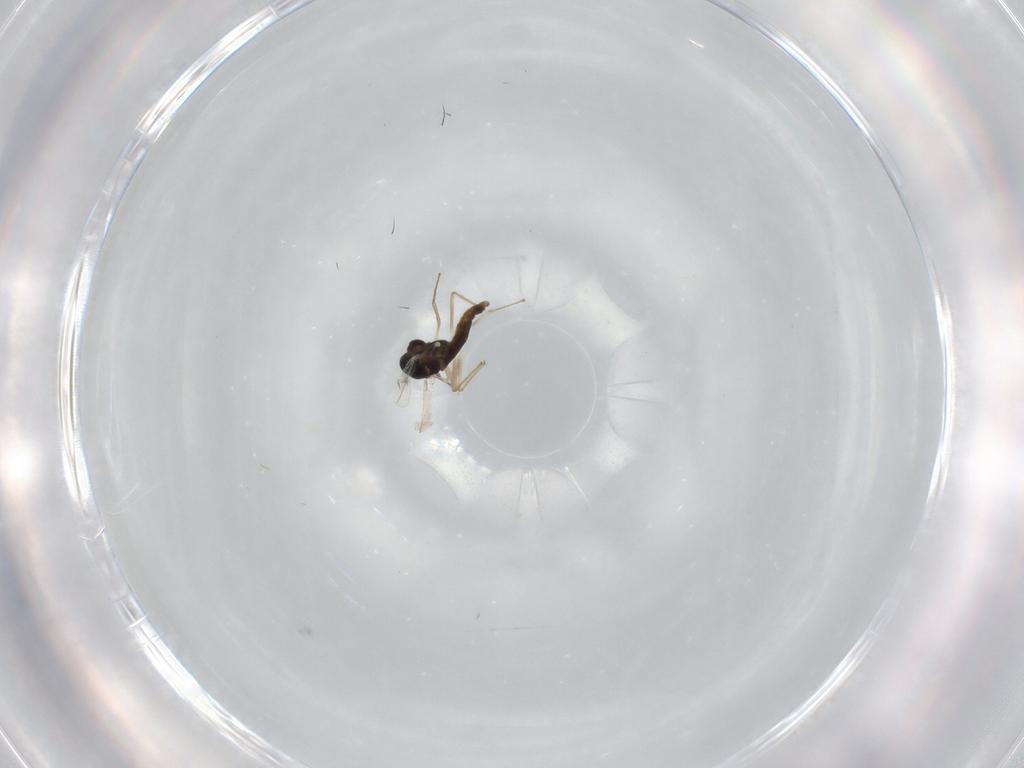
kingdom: Animalia
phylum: Arthropoda
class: Insecta
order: Diptera
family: Chironomidae
